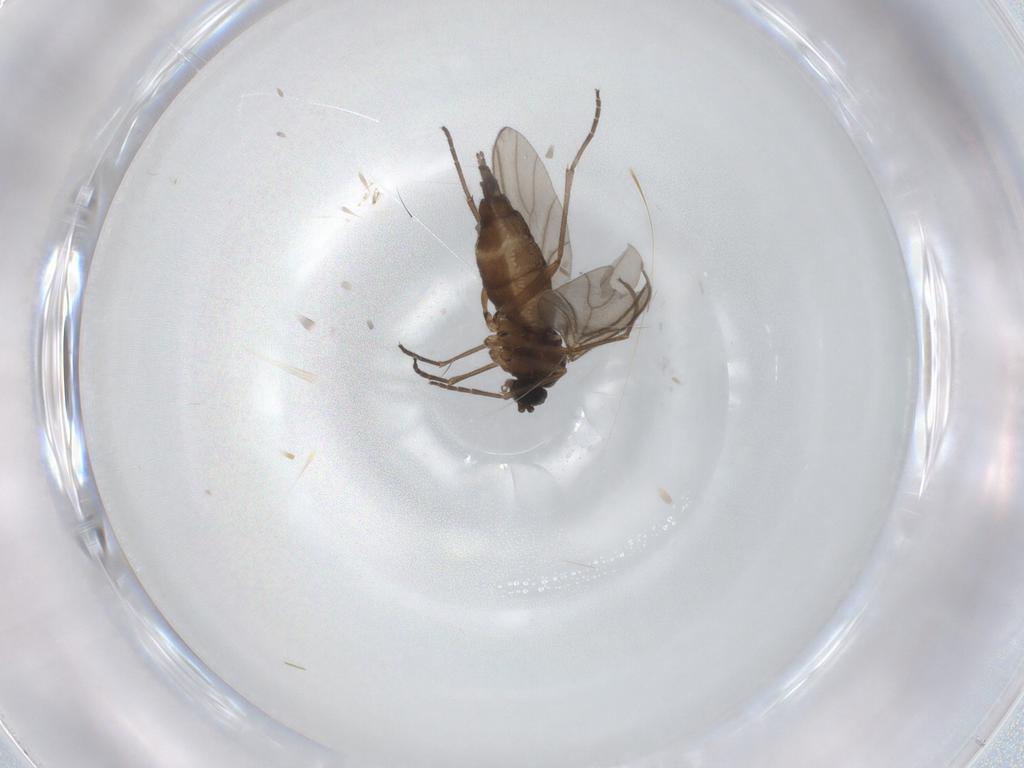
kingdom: Animalia
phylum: Arthropoda
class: Insecta
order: Diptera
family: Sciaridae
